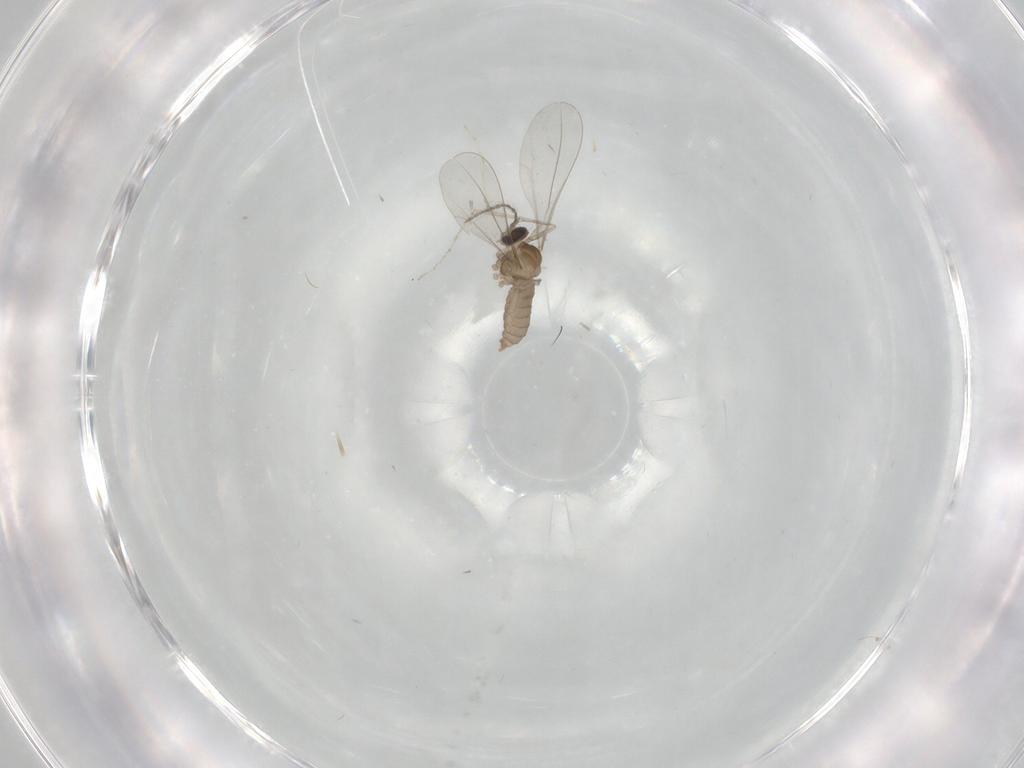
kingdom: Animalia
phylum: Arthropoda
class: Insecta
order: Diptera
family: Cecidomyiidae
